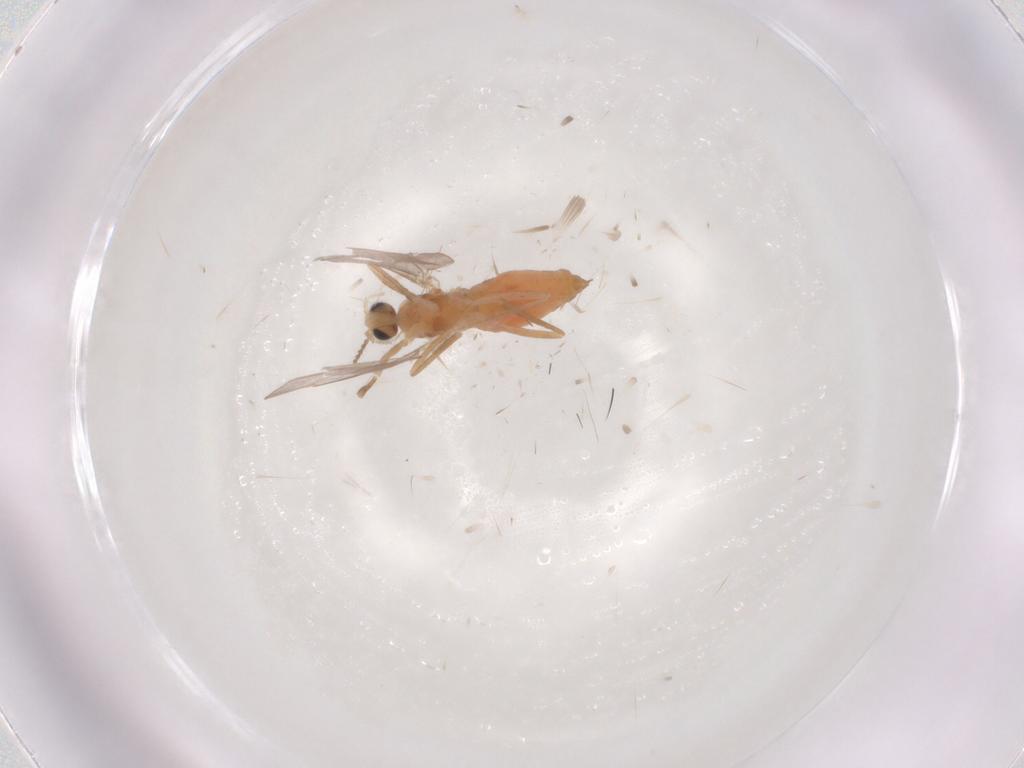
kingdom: Animalia
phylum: Arthropoda
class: Insecta
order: Diptera
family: Cecidomyiidae
